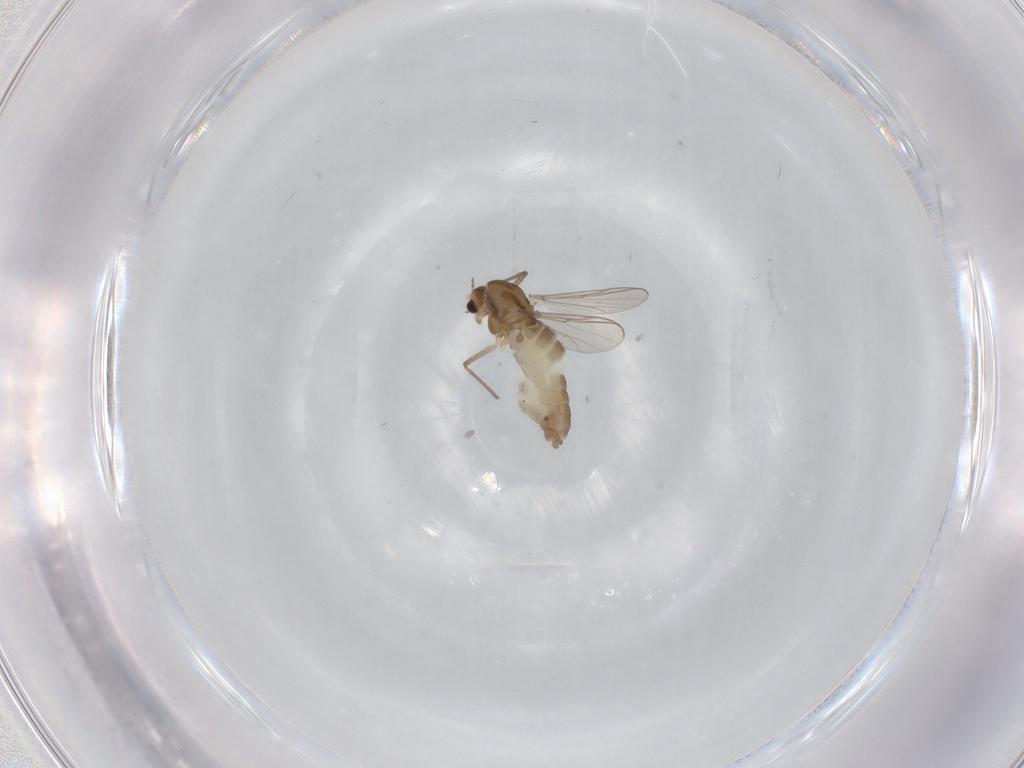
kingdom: Animalia
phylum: Arthropoda
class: Insecta
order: Diptera
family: Chironomidae
